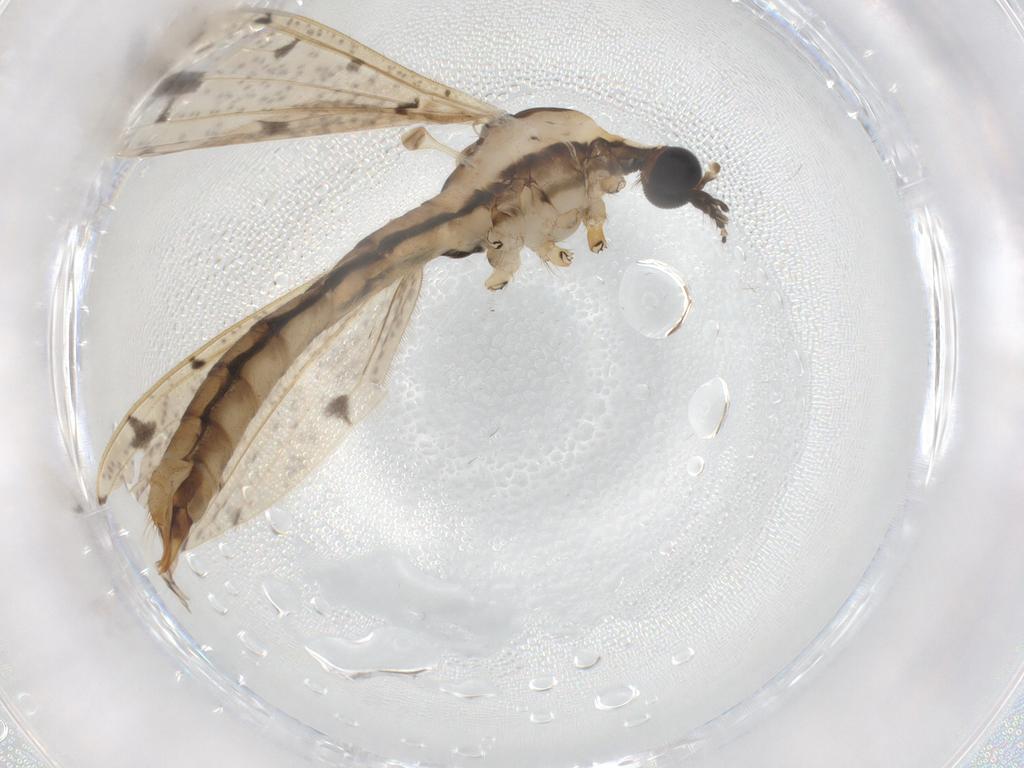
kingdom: Animalia
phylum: Arthropoda
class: Insecta
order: Diptera
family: Limoniidae
